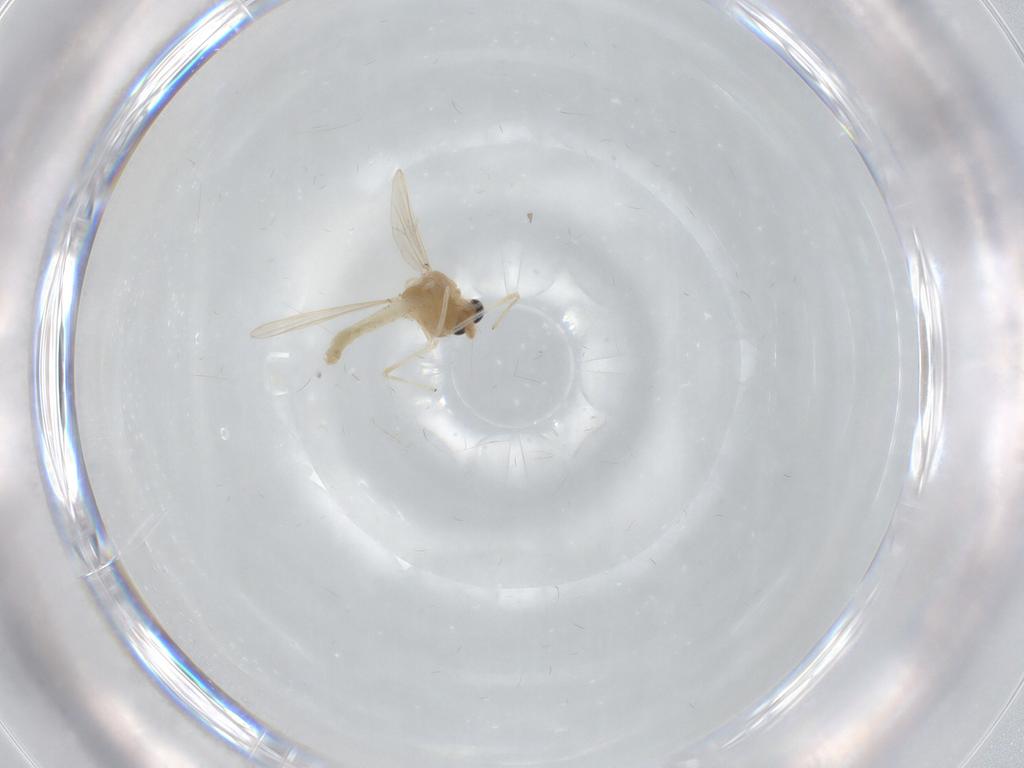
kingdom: Animalia
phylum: Arthropoda
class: Insecta
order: Diptera
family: Chironomidae
